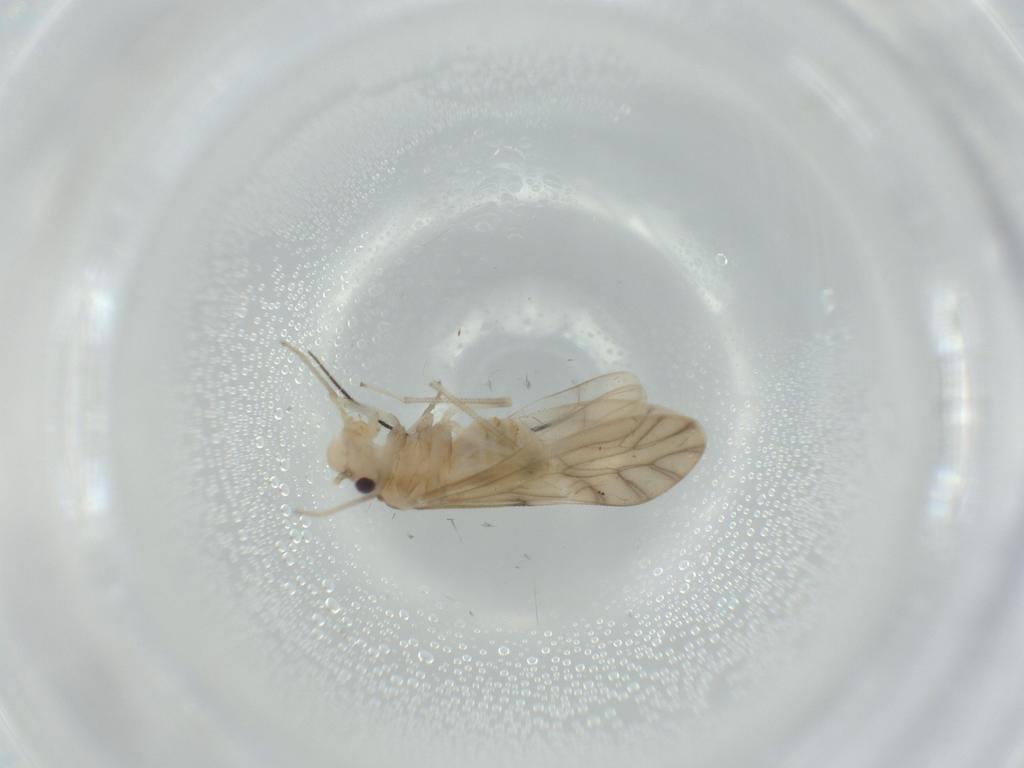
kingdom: Animalia
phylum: Arthropoda
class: Insecta
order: Psocodea
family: Caeciliusidae
